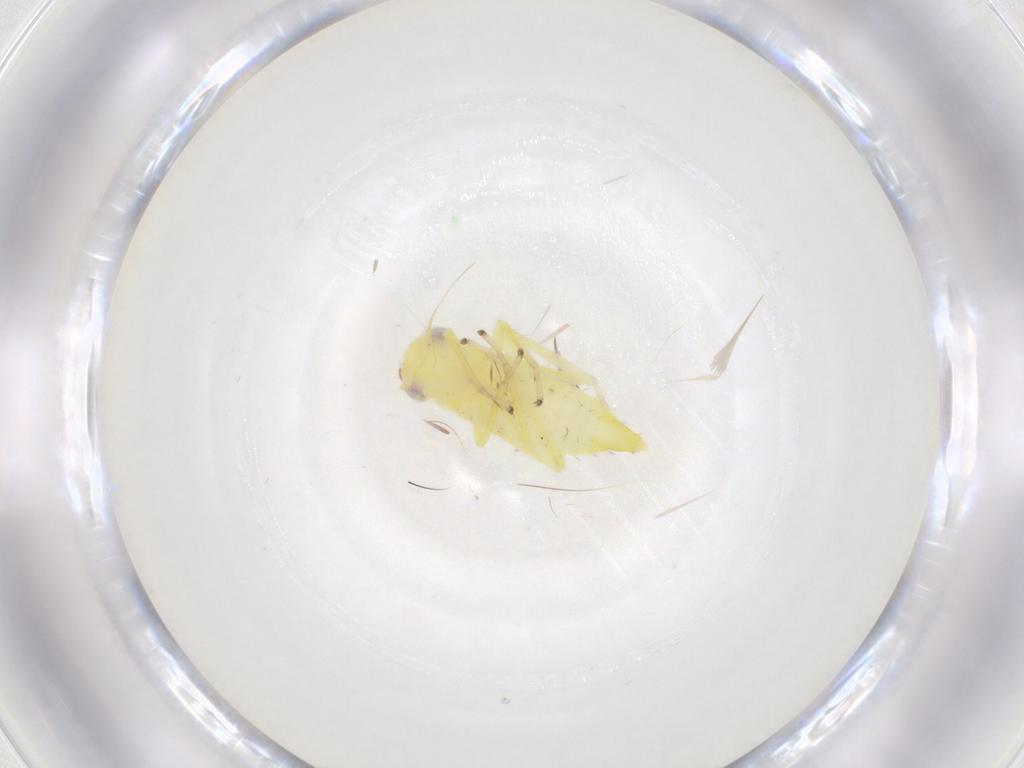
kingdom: Animalia
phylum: Arthropoda
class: Insecta
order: Hemiptera
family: Cicadellidae
